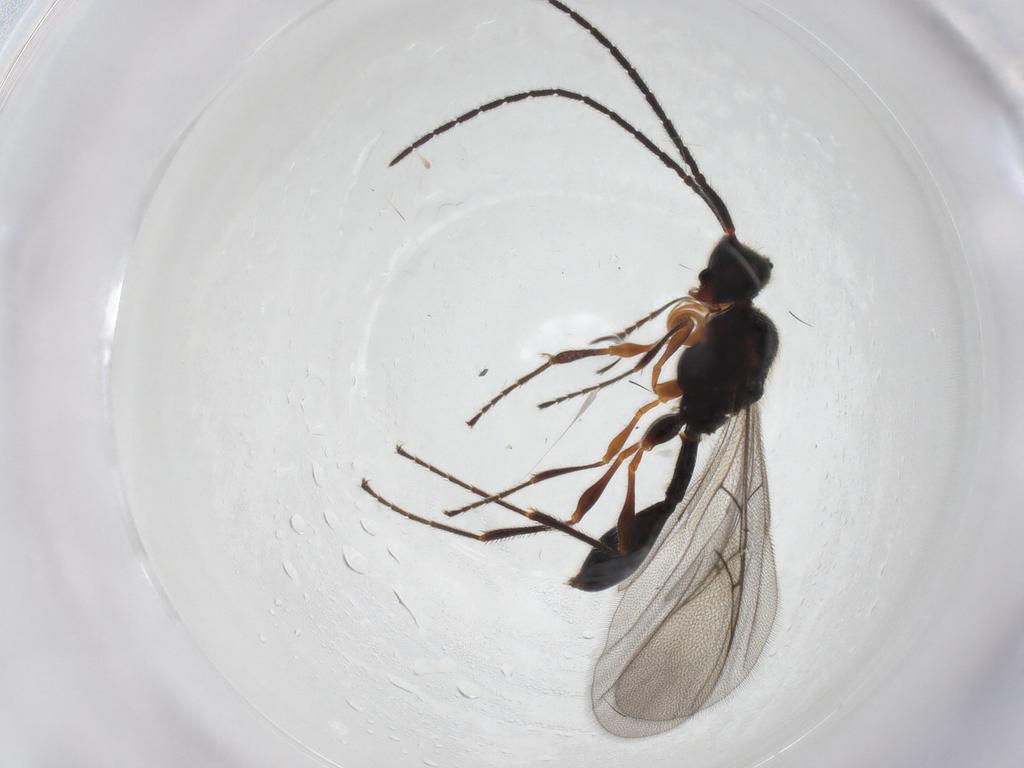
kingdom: Animalia
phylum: Arthropoda
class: Insecta
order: Hymenoptera
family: Diapriidae
